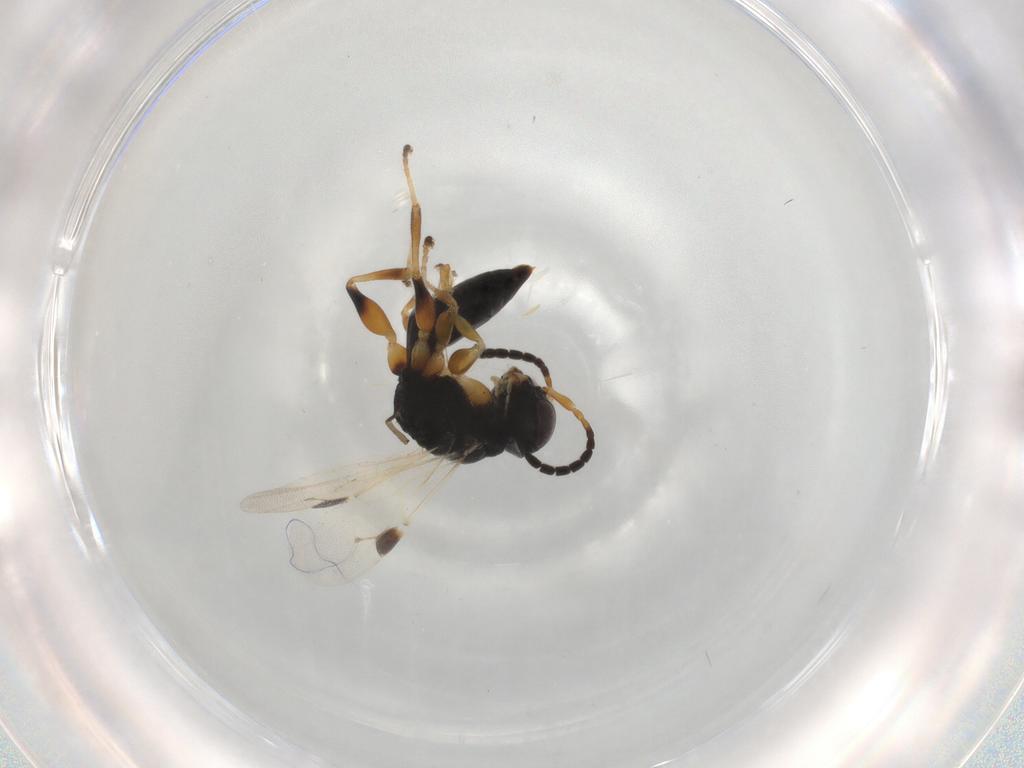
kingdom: Animalia
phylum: Arthropoda
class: Insecta
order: Hymenoptera
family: Dryinidae
